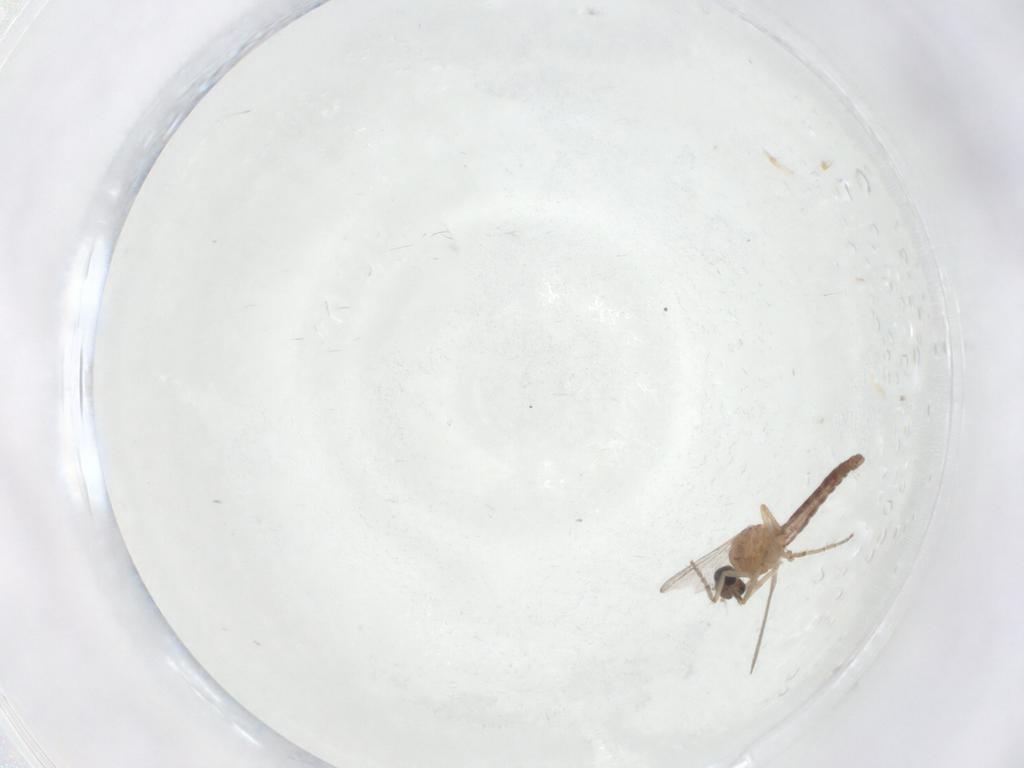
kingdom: Animalia
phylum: Arthropoda
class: Insecta
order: Diptera
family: Ceratopogonidae
